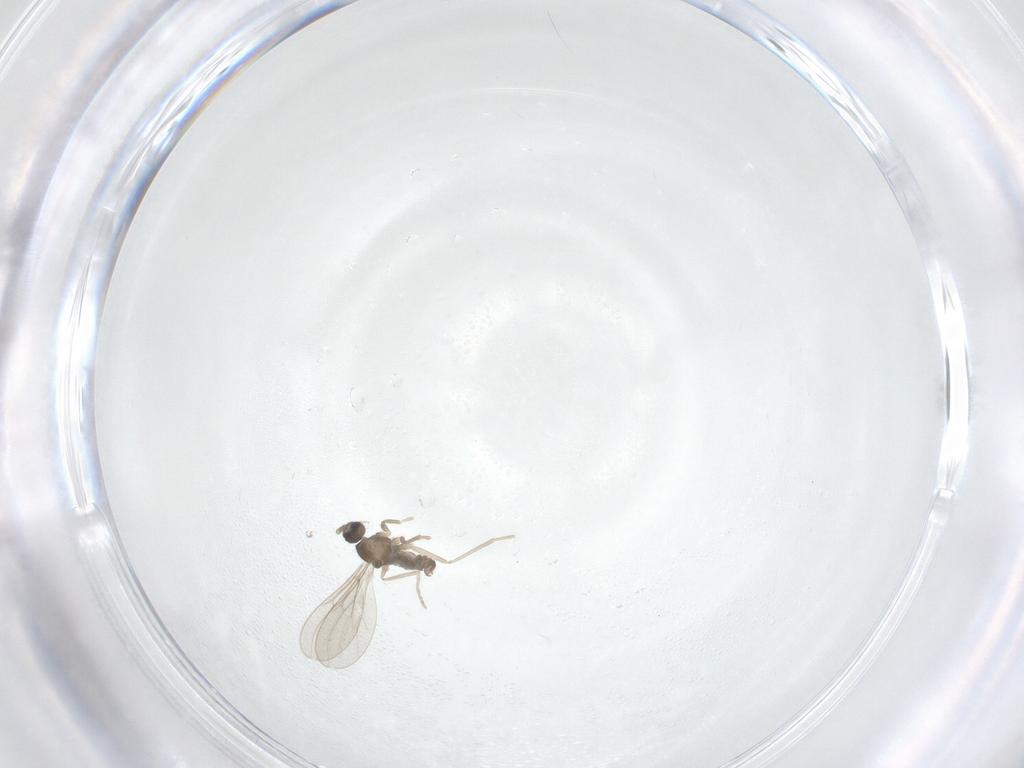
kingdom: Animalia
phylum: Arthropoda
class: Insecta
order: Diptera
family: Cecidomyiidae
